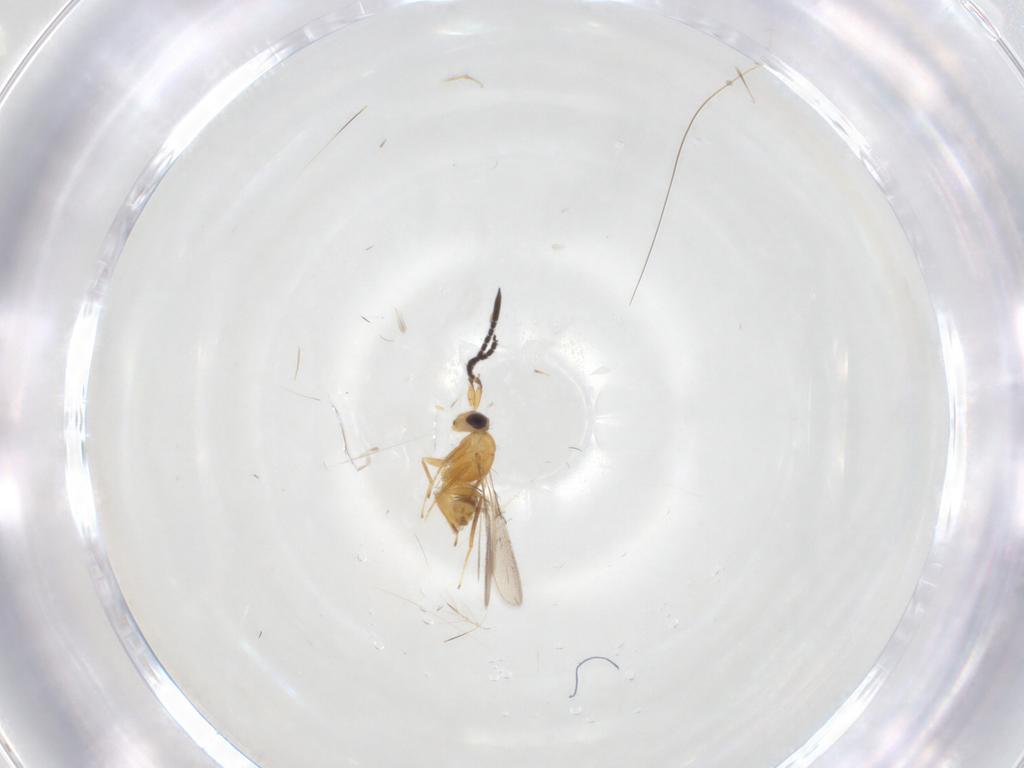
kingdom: Animalia
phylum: Arthropoda
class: Insecta
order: Hymenoptera
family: Mymaridae
